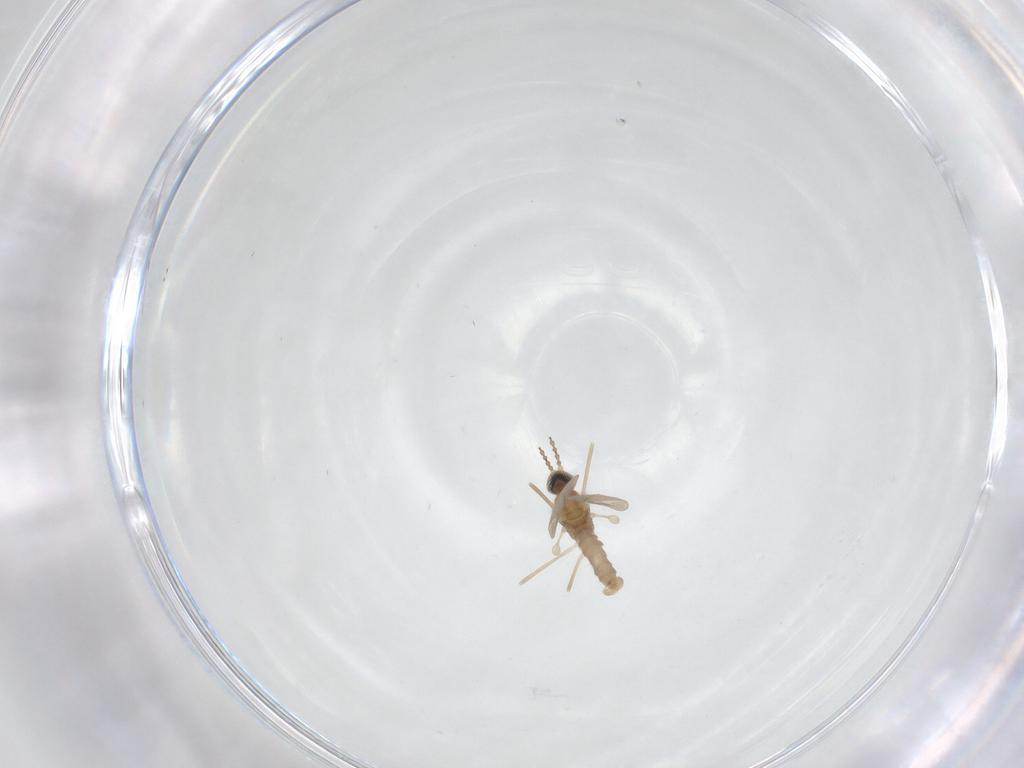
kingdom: Animalia
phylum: Arthropoda
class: Insecta
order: Diptera
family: Cecidomyiidae
